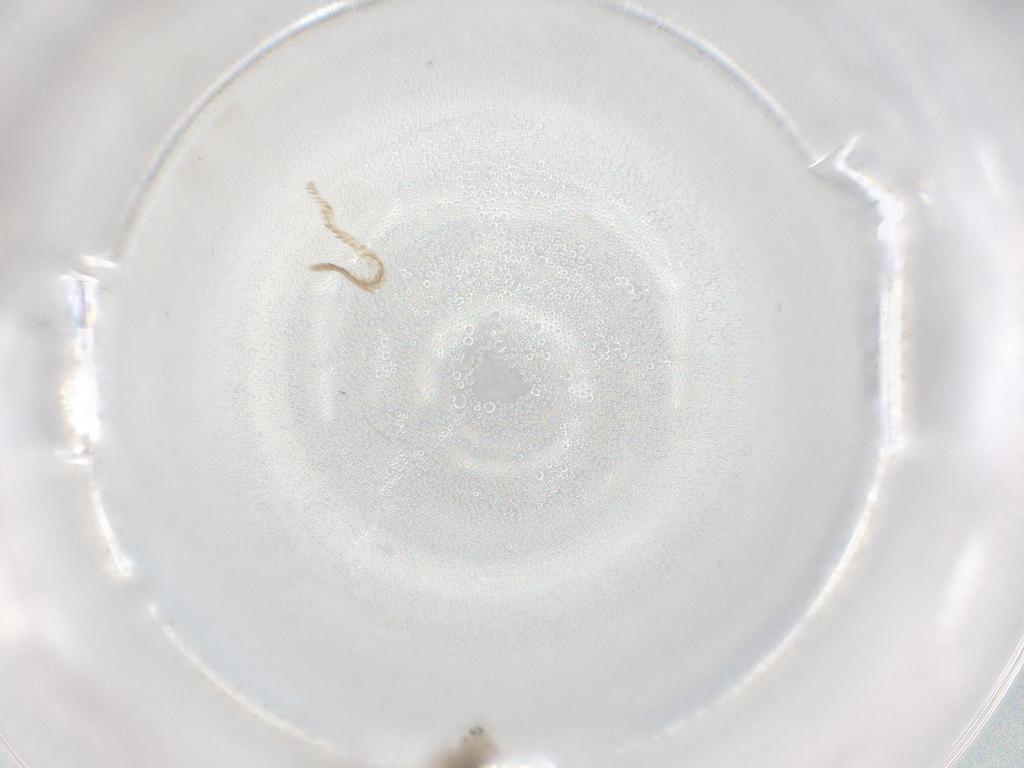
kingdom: Animalia
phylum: Arthropoda
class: Insecta
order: Diptera
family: Cecidomyiidae
